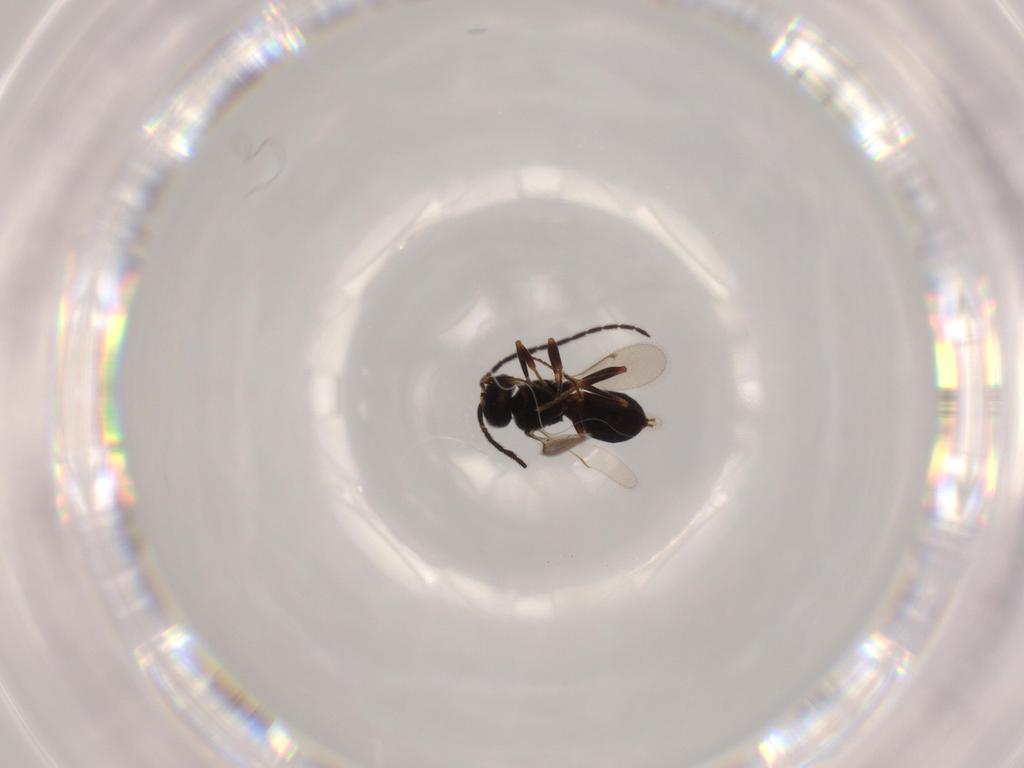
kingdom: Animalia
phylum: Arthropoda
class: Insecta
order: Hymenoptera
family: Scelionidae
